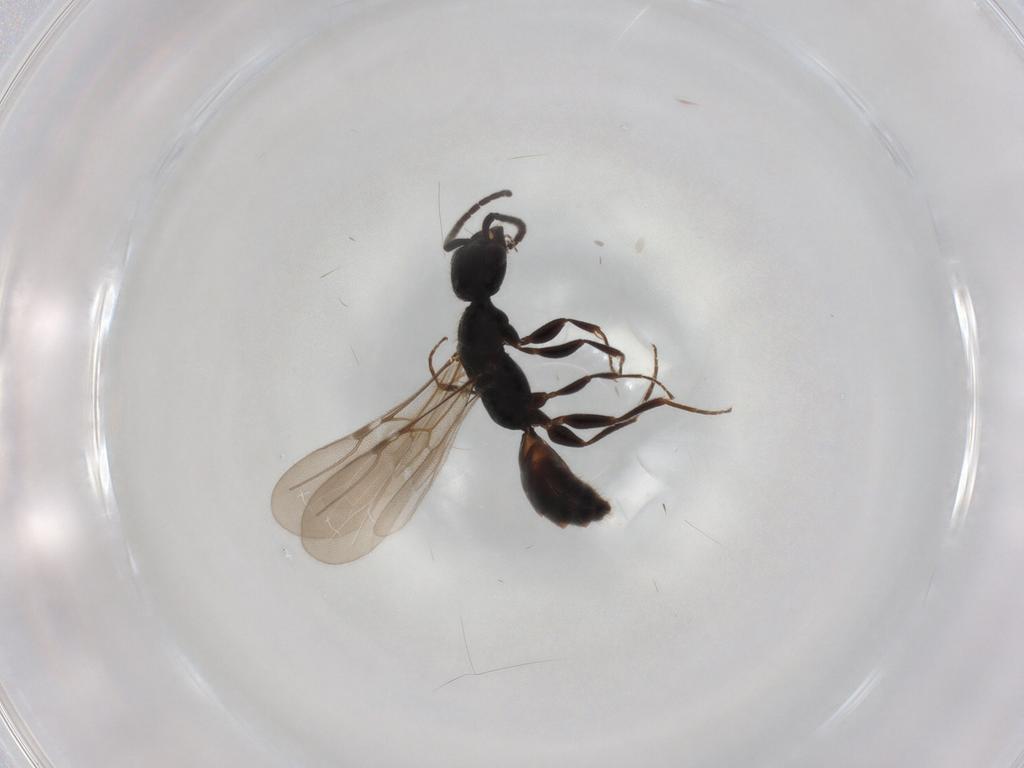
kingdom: Animalia
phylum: Arthropoda
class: Insecta
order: Hymenoptera
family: Bethylidae
